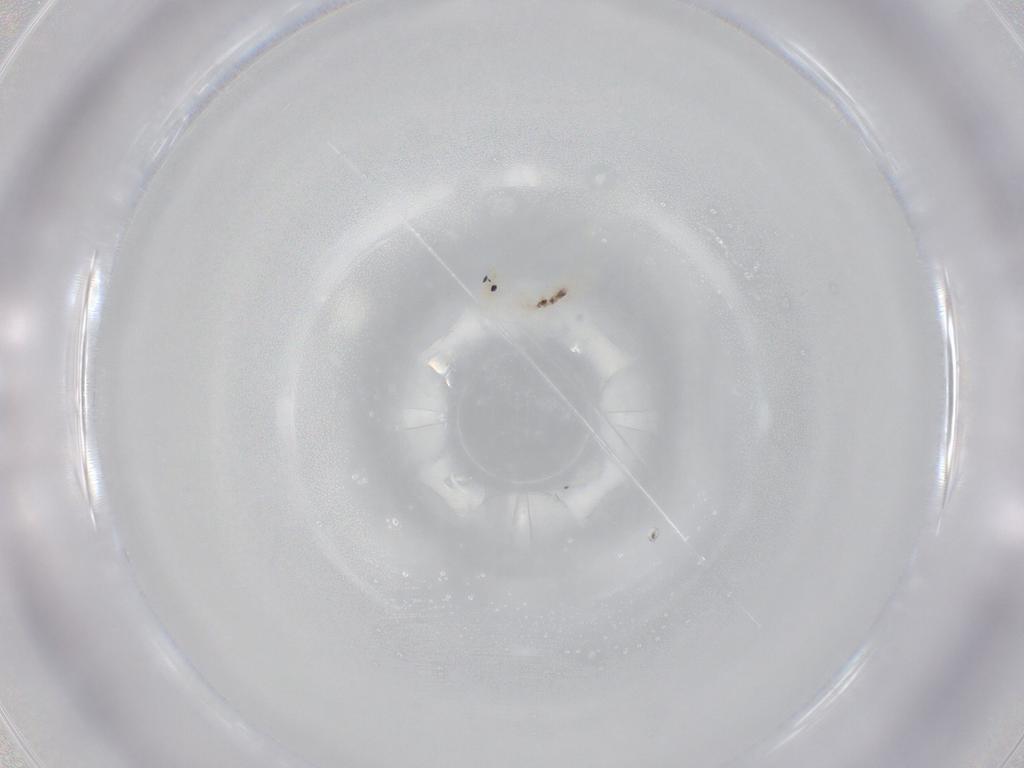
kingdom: Animalia
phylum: Arthropoda
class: Collembola
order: Entomobryomorpha
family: Entomobryidae
